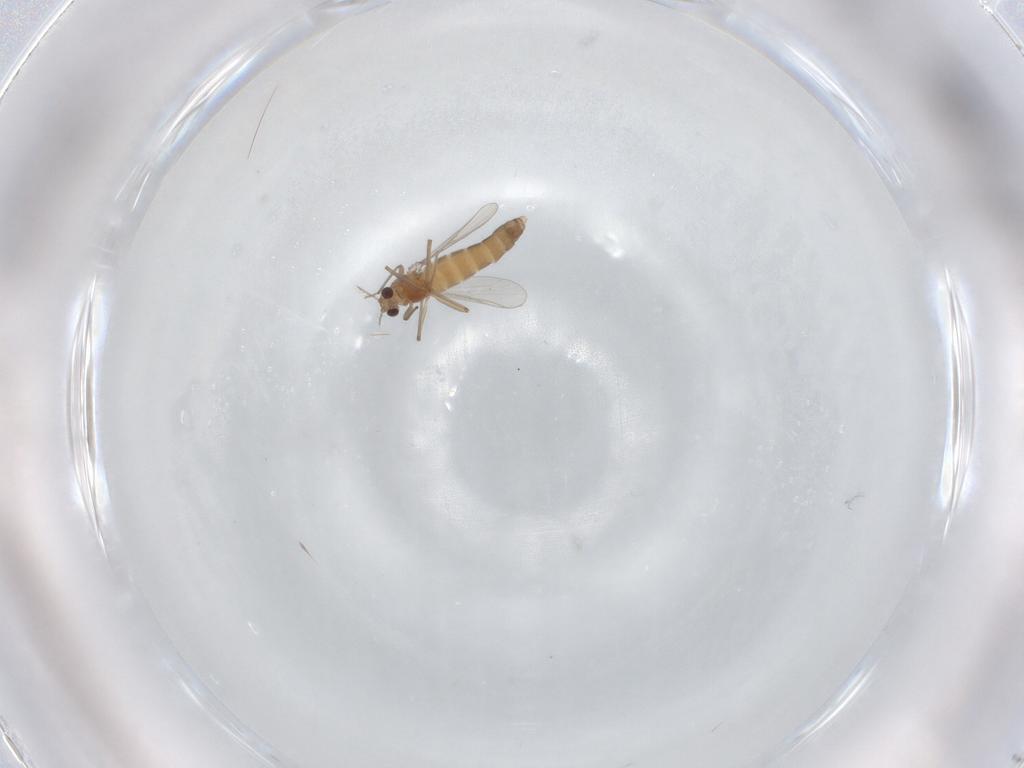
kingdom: Animalia
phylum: Arthropoda
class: Insecta
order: Diptera
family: Chironomidae
